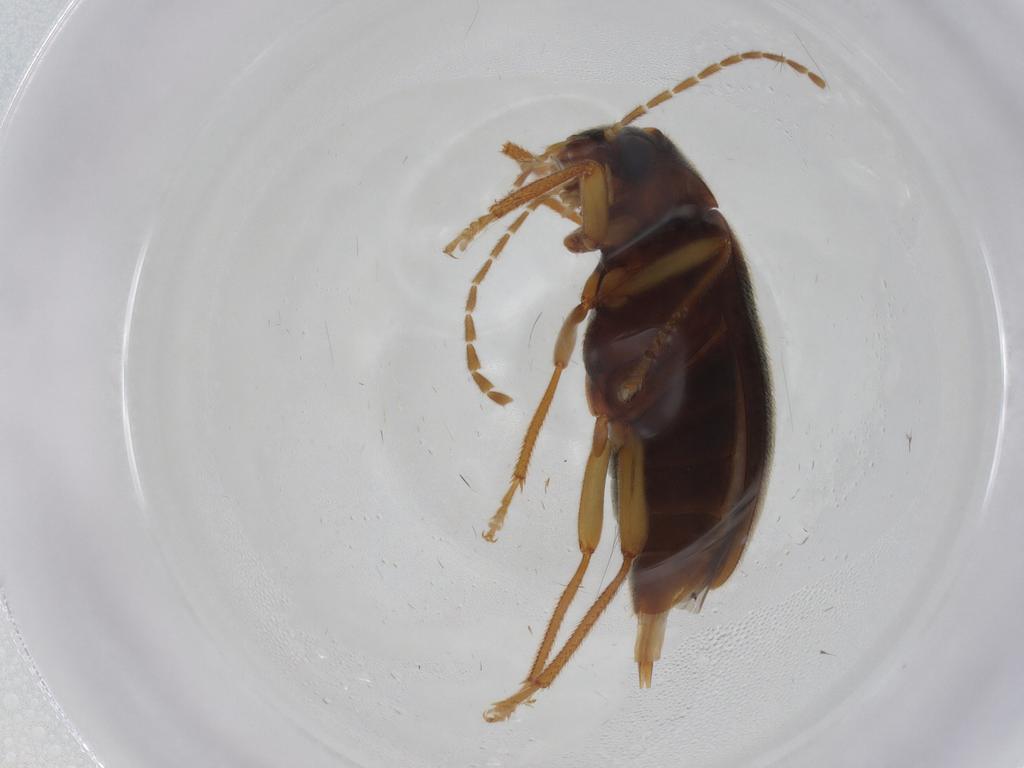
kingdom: Animalia
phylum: Arthropoda
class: Insecta
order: Coleoptera
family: Ptilodactylidae
